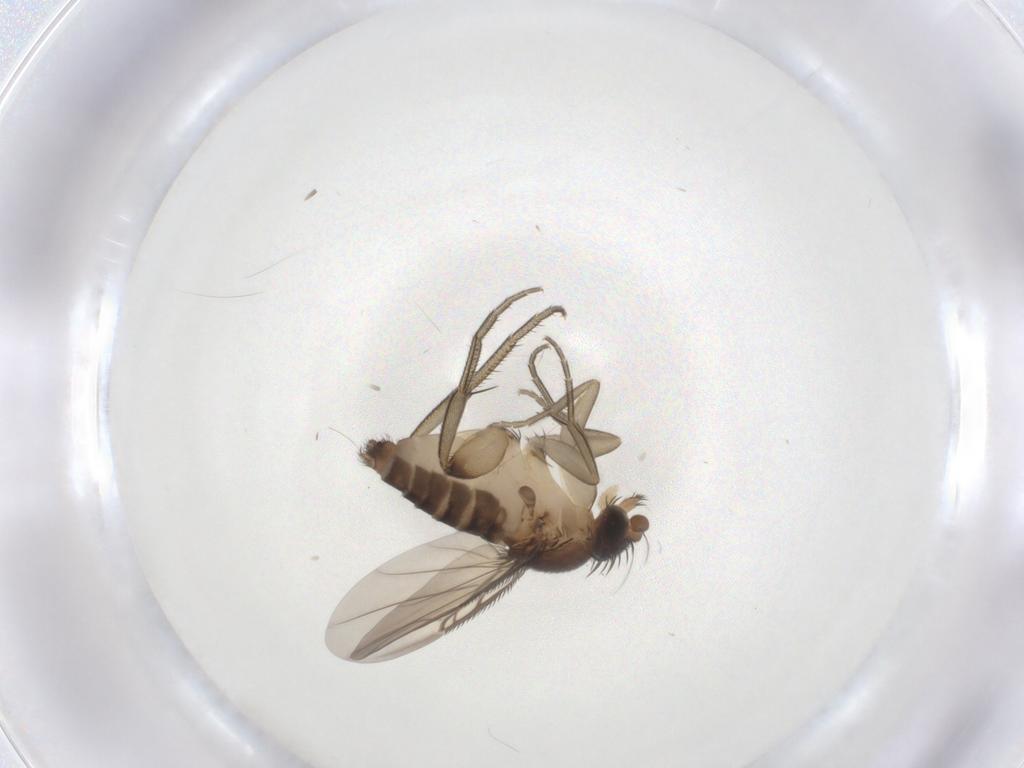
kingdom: Animalia
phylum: Arthropoda
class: Insecta
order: Diptera
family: Phoridae
